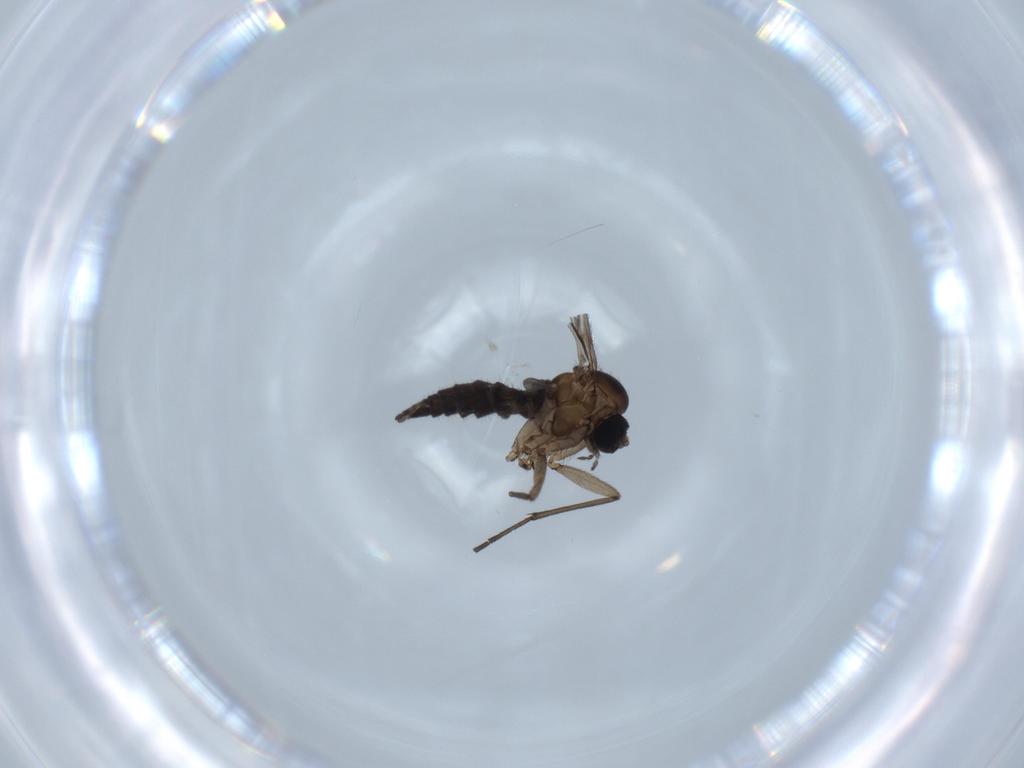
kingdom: Animalia
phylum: Arthropoda
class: Insecta
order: Diptera
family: Sciaridae
